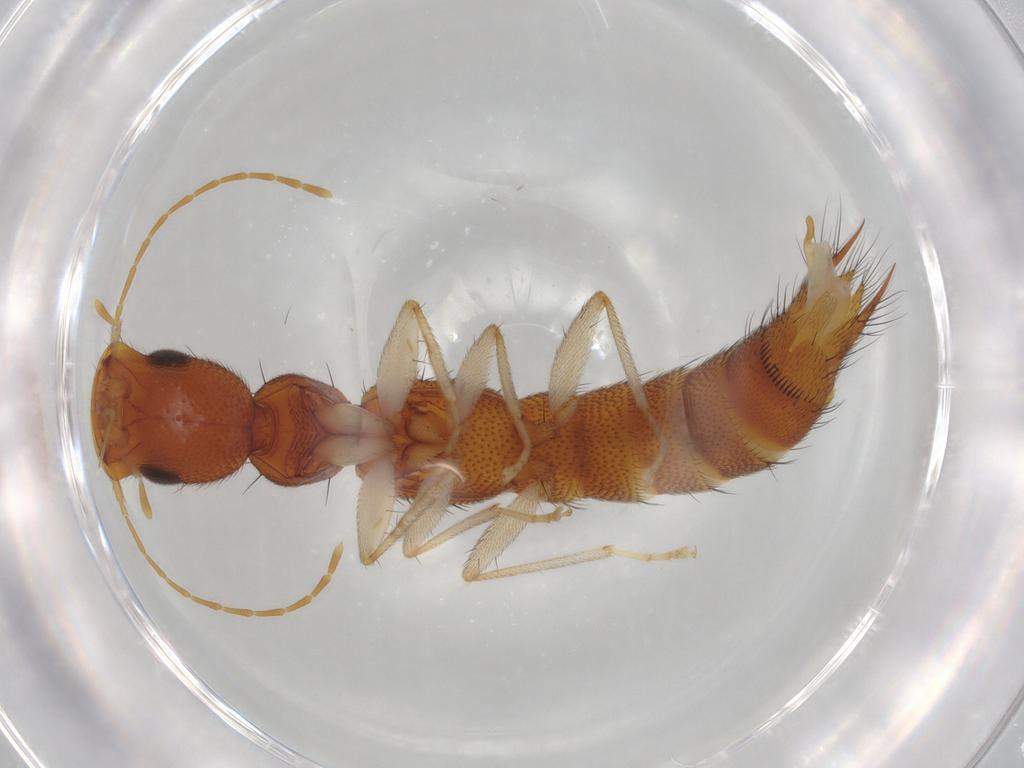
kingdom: Animalia
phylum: Arthropoda
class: Insecta
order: Coleoptera
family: Staphylinidae
